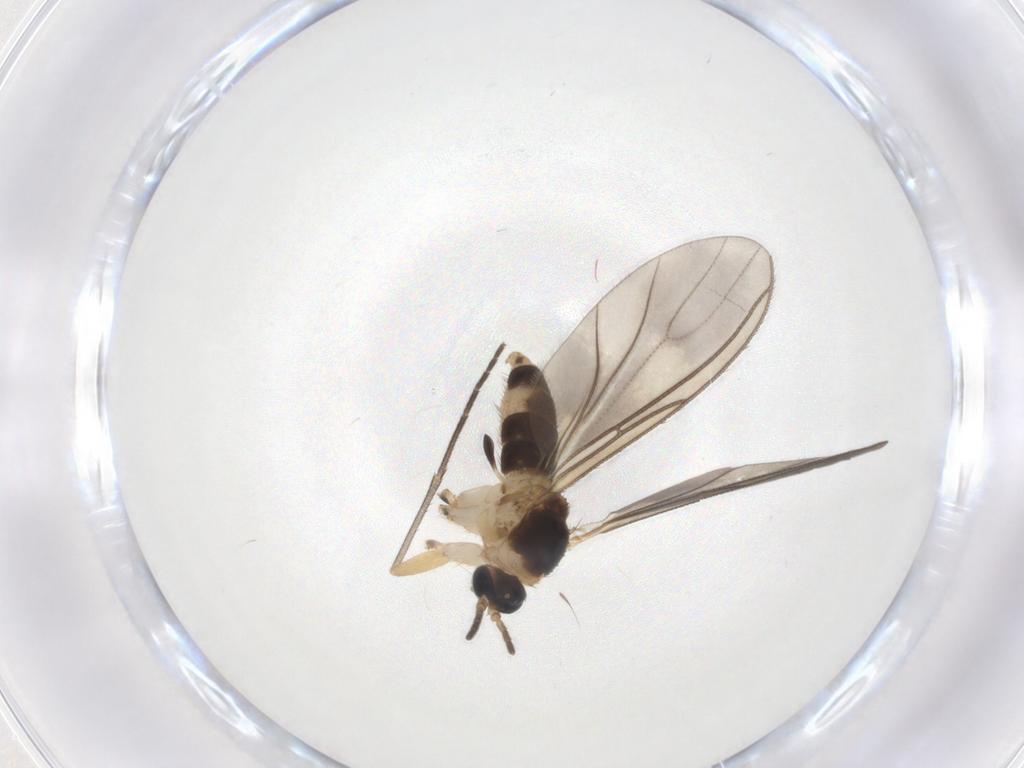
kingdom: Animalia
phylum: Arthropoda
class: Insecta
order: Diptera
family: Sciaridae
